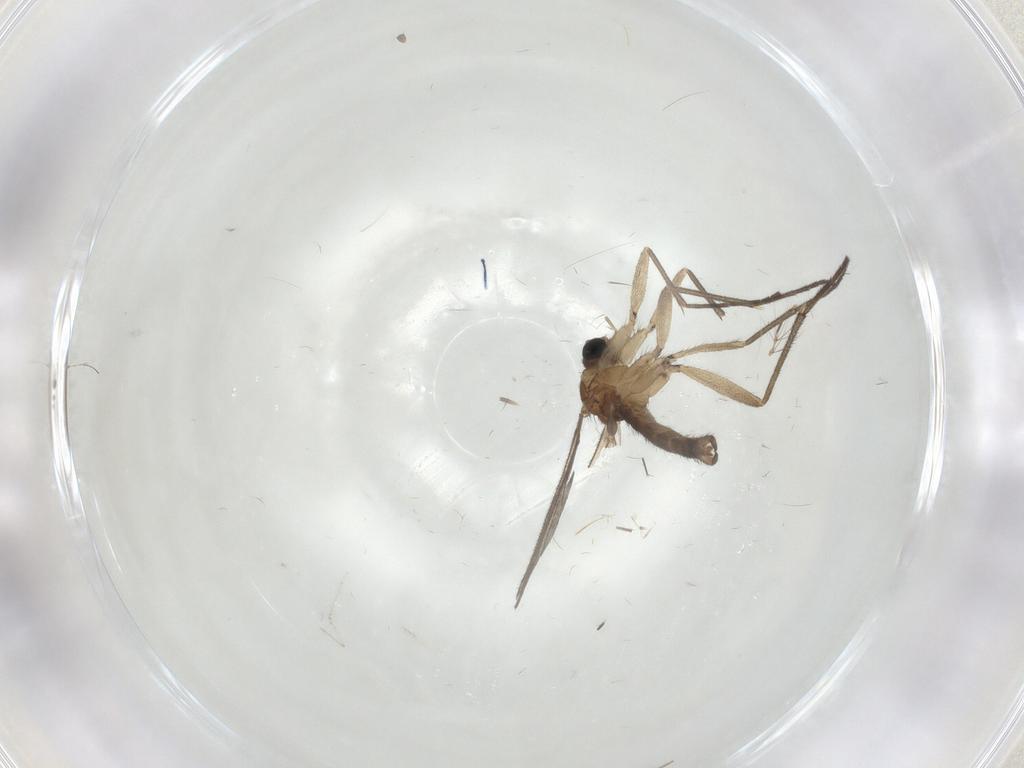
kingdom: Animalia
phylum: Arthropoda
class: Insecta
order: Diptera
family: Sciaridae
